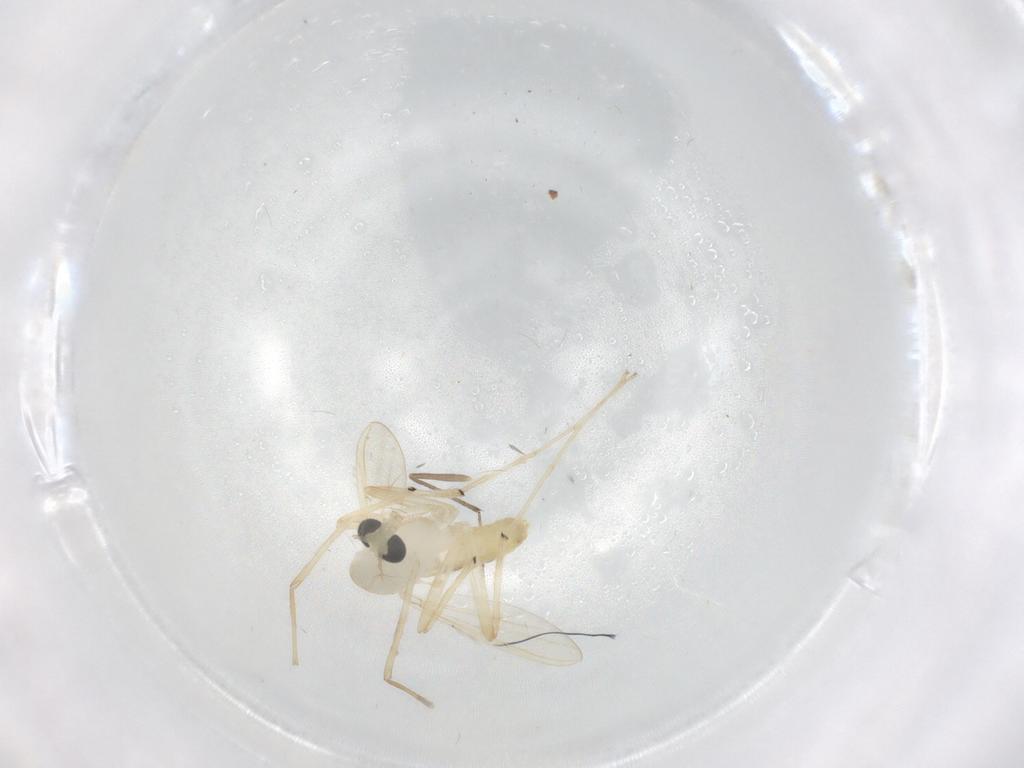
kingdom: Animalia
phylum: Arthropoda
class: Insecta
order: Diptera
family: Chironomidae
